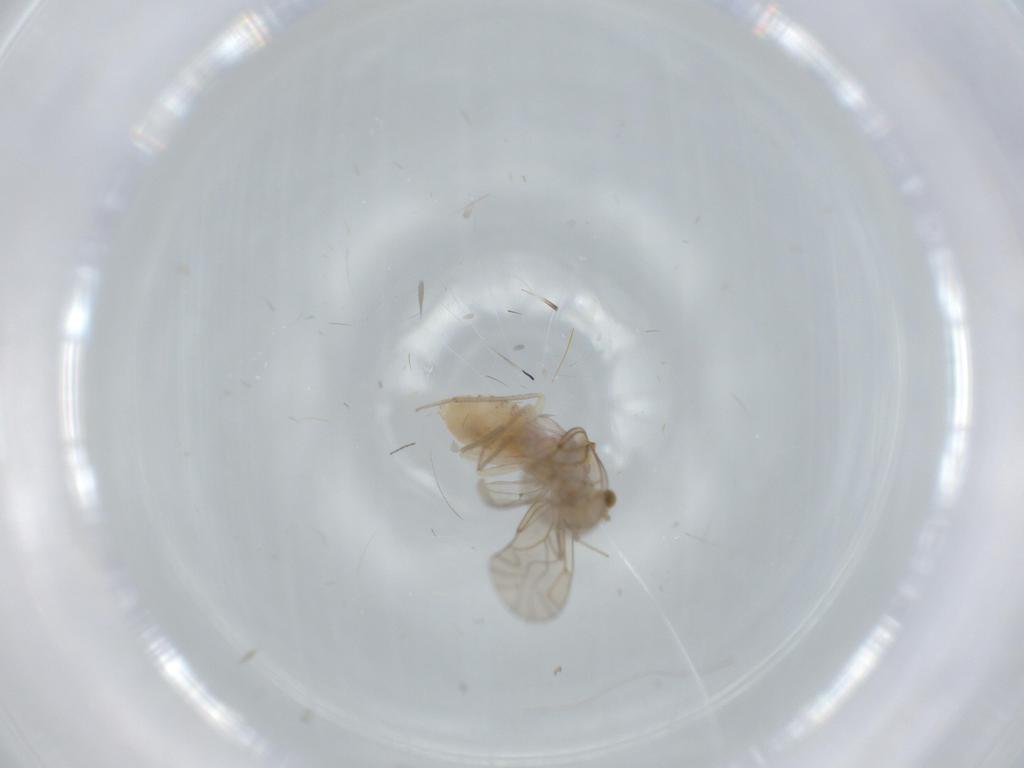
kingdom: Animalia
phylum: Arthropoda
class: Insecta
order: Psocodea
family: Lachesillidae
